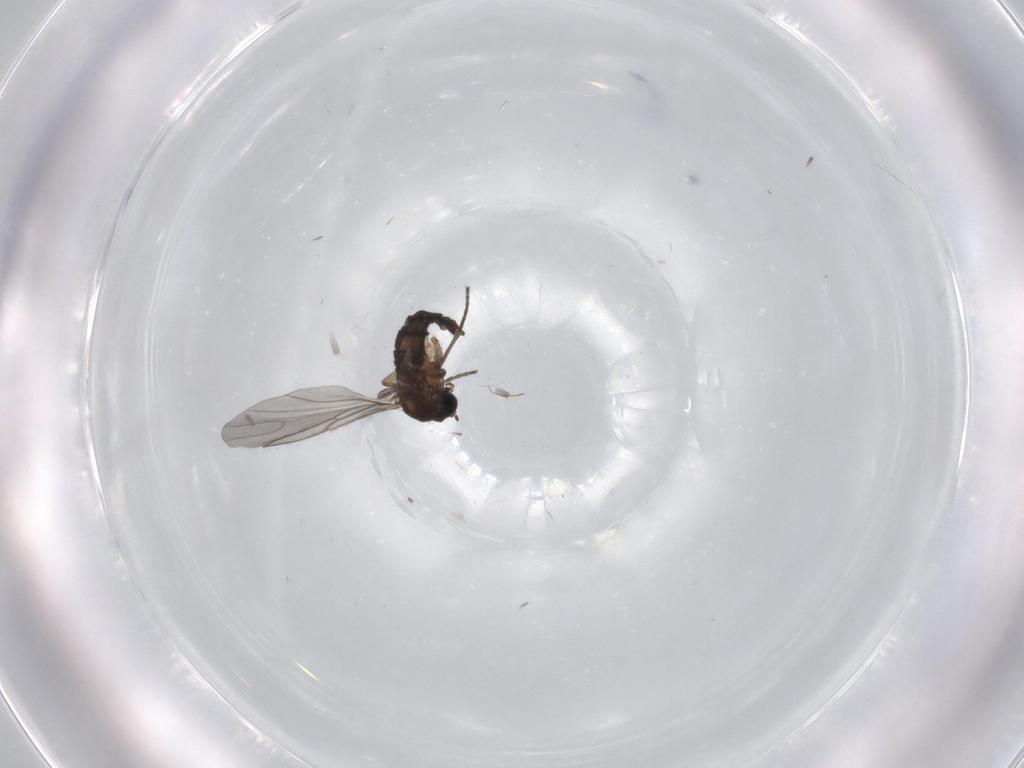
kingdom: Animalia
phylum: Arthropoda
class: Insecta
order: Diptera
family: Sciaridae
